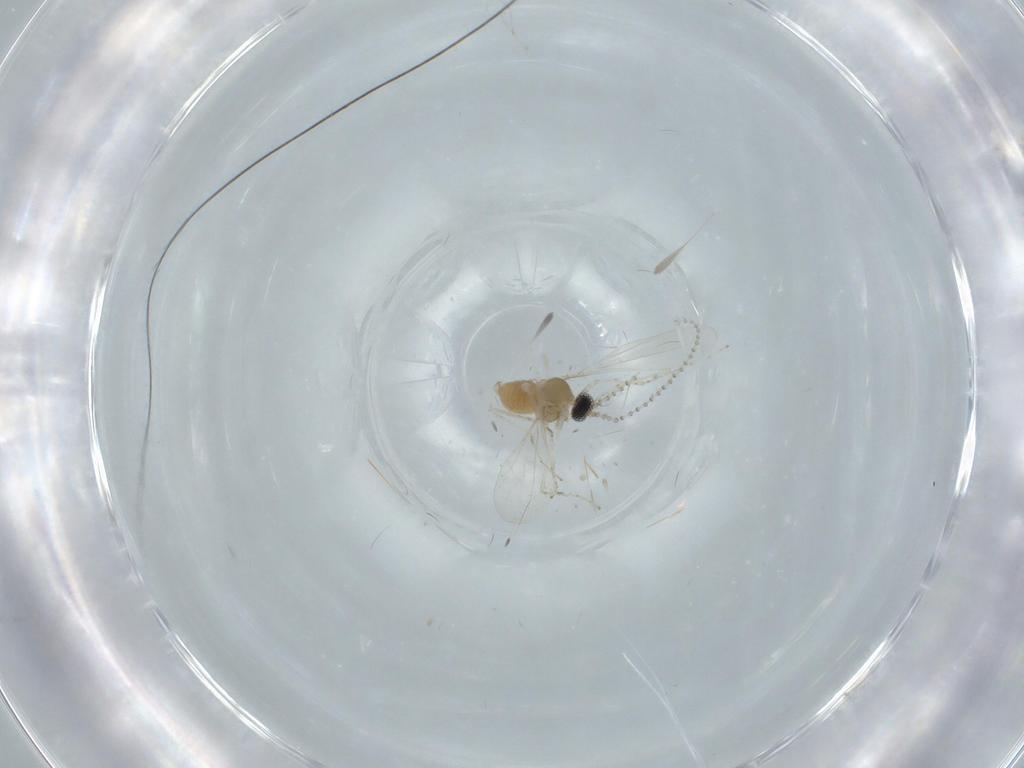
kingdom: Animalia
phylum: Arthropoda
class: Insecta
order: Diptera
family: Cecidomyiidae
